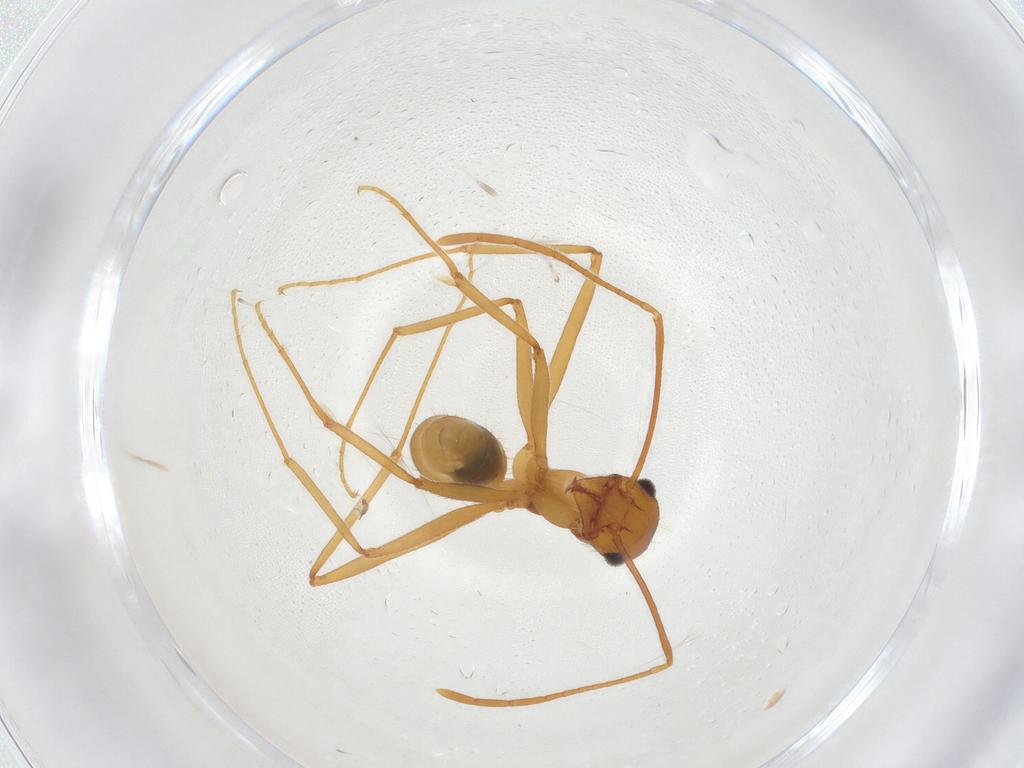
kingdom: Animalia
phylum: Arthropoda
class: Insecta
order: Hymenoptera
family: Formicidae
